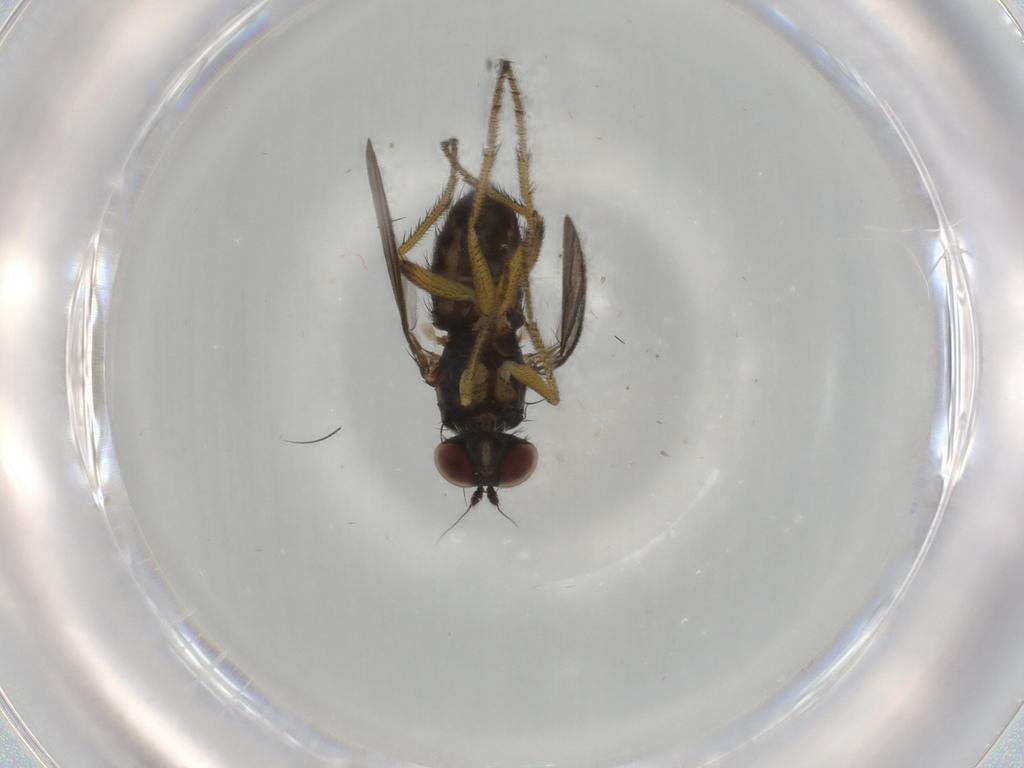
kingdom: Animalia
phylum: Arthropoda
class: Insecta
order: Diptera
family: Dolichopodidae
